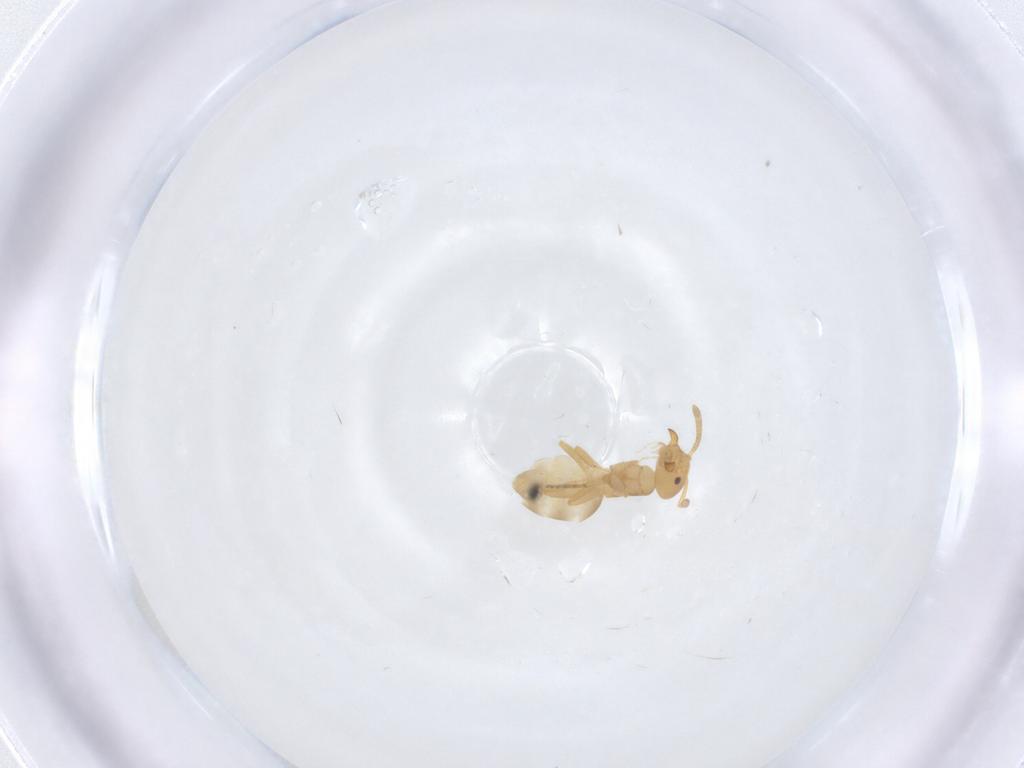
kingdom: Animalia
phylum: Arthropoda
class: Insecta
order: Hymenoptera
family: Formicidae
